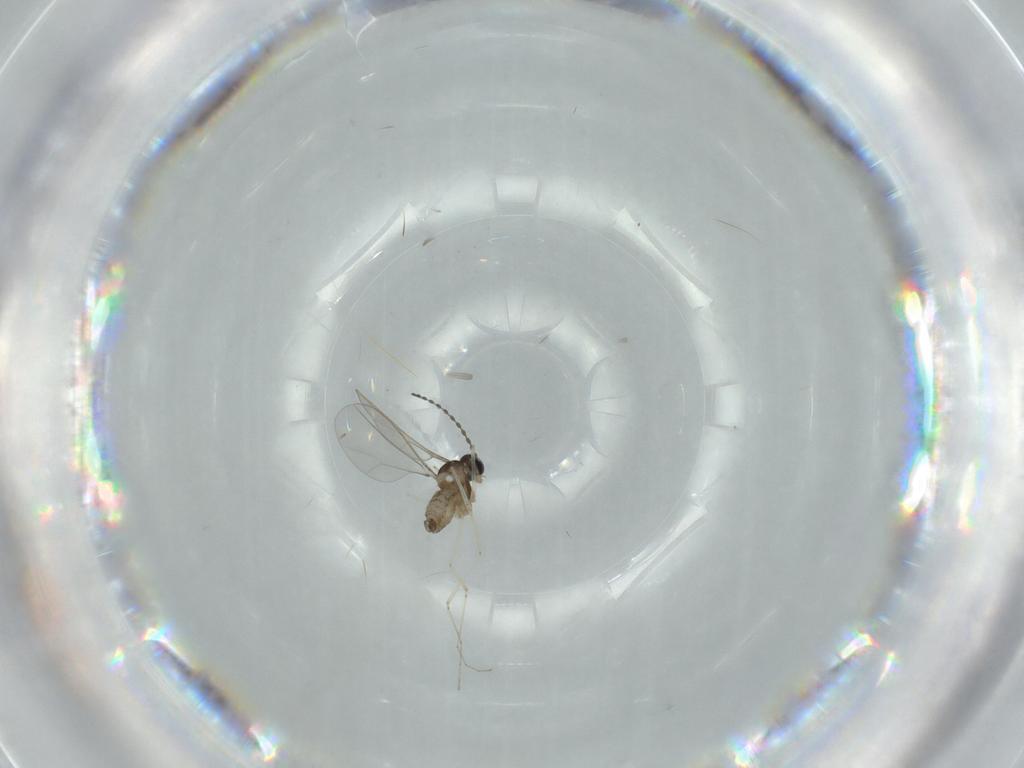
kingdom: Animalia
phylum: Arthropoda
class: Insecta
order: Diptera
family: Cecidomyiidae
